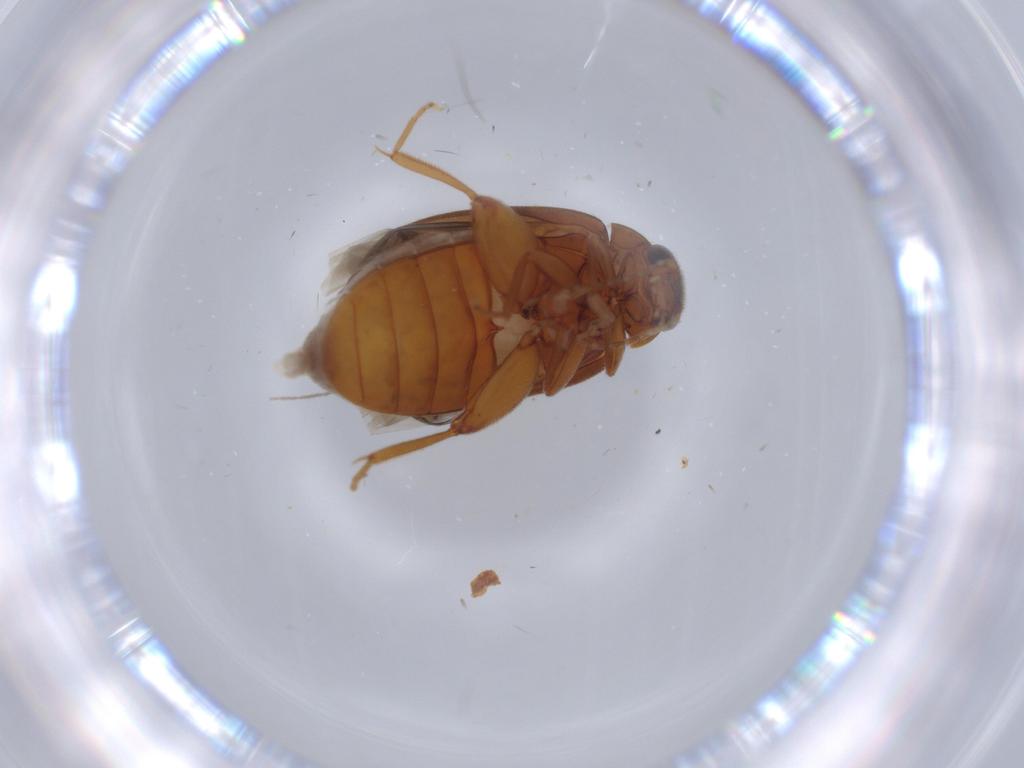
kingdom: Animalia
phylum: Arthropoda
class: Insecta
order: Coleoptera
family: Scirtidae
